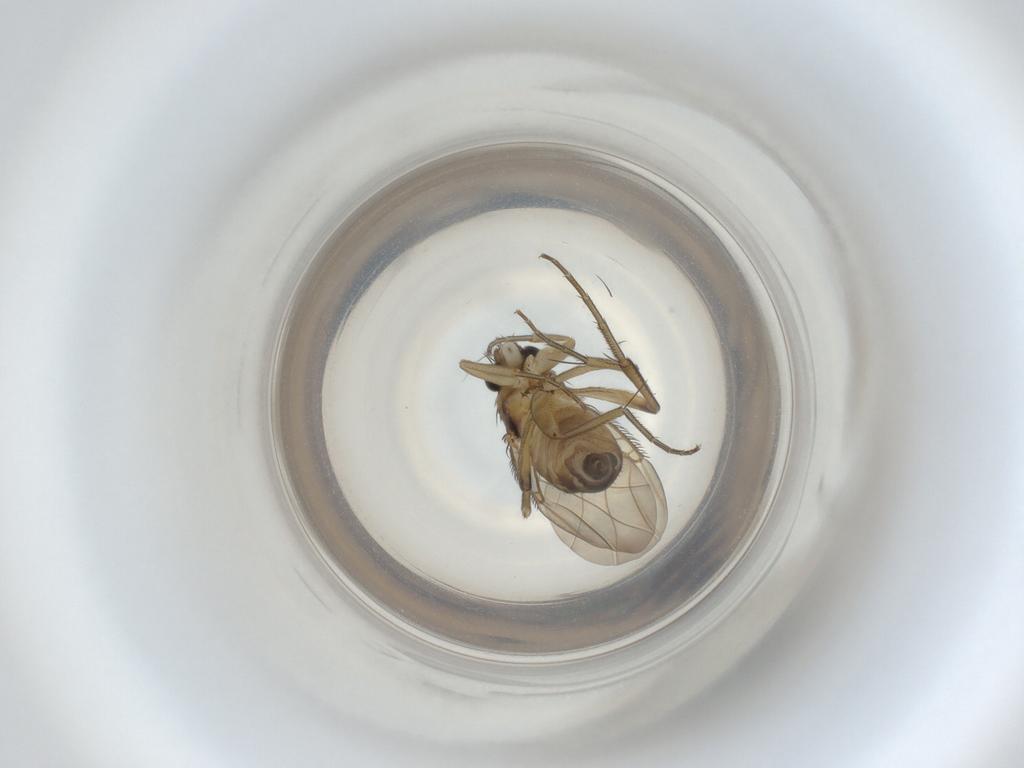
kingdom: Animalia
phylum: Arthropoda
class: Insecta
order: Diptera
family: Phoridae
